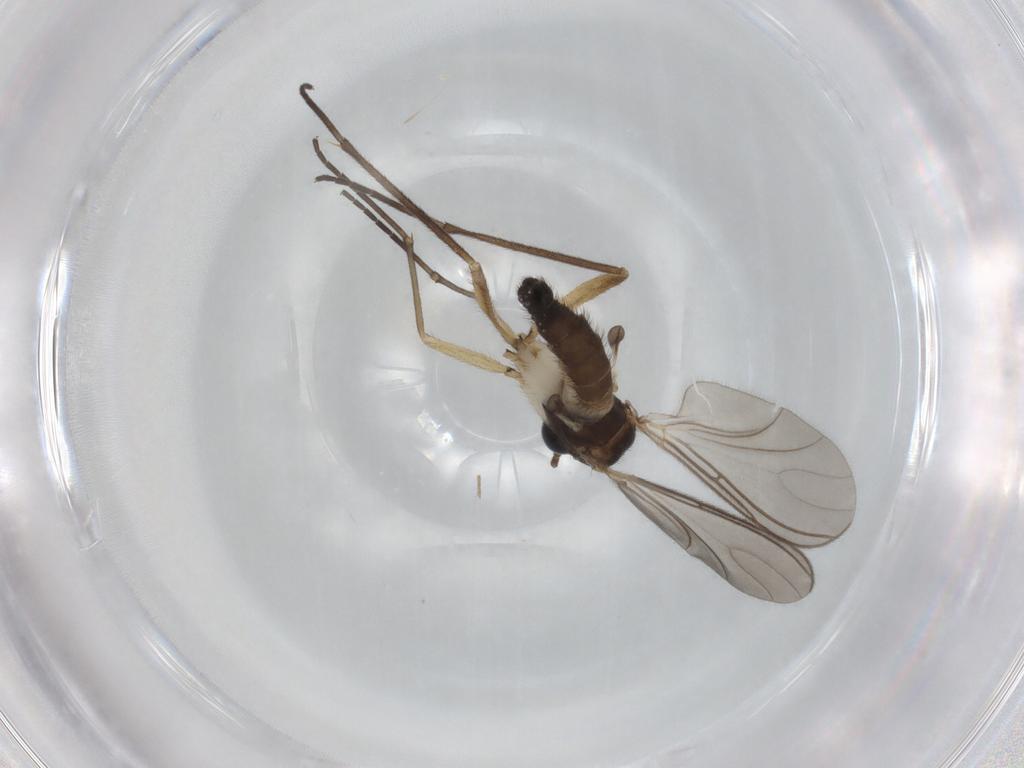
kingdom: Animalia
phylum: Arthropoda
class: Insecta
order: Diptera
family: Sciaridae
